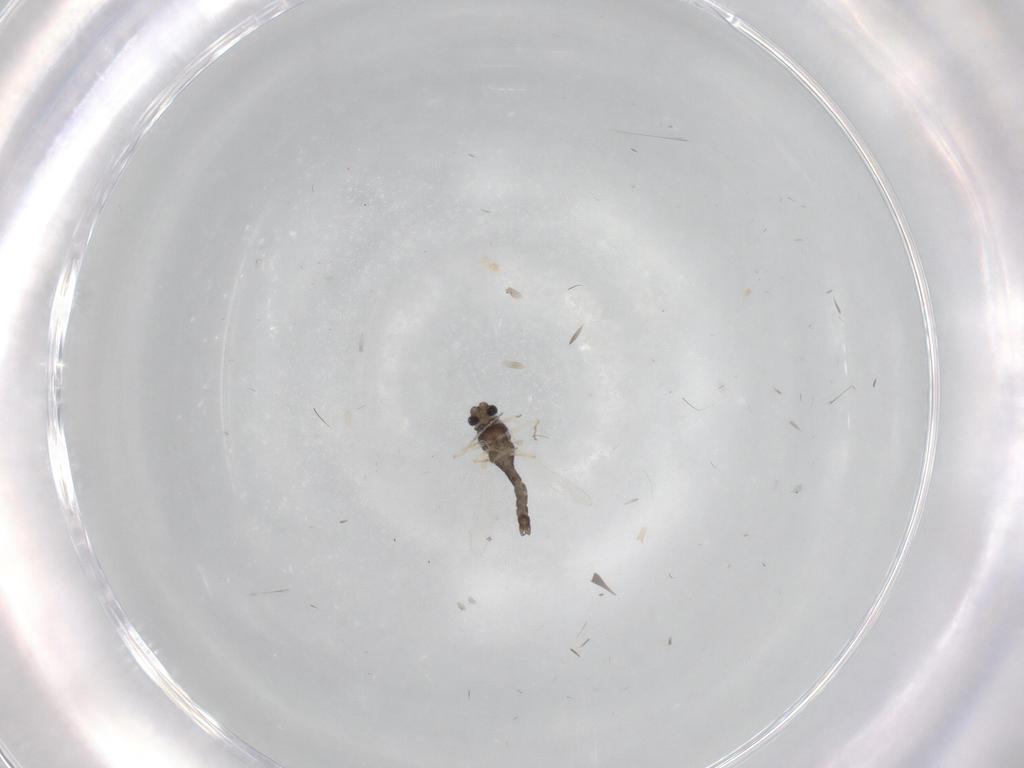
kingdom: Animalia
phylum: Arthropoda
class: Insecta
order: Diptera
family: Chironomidae
